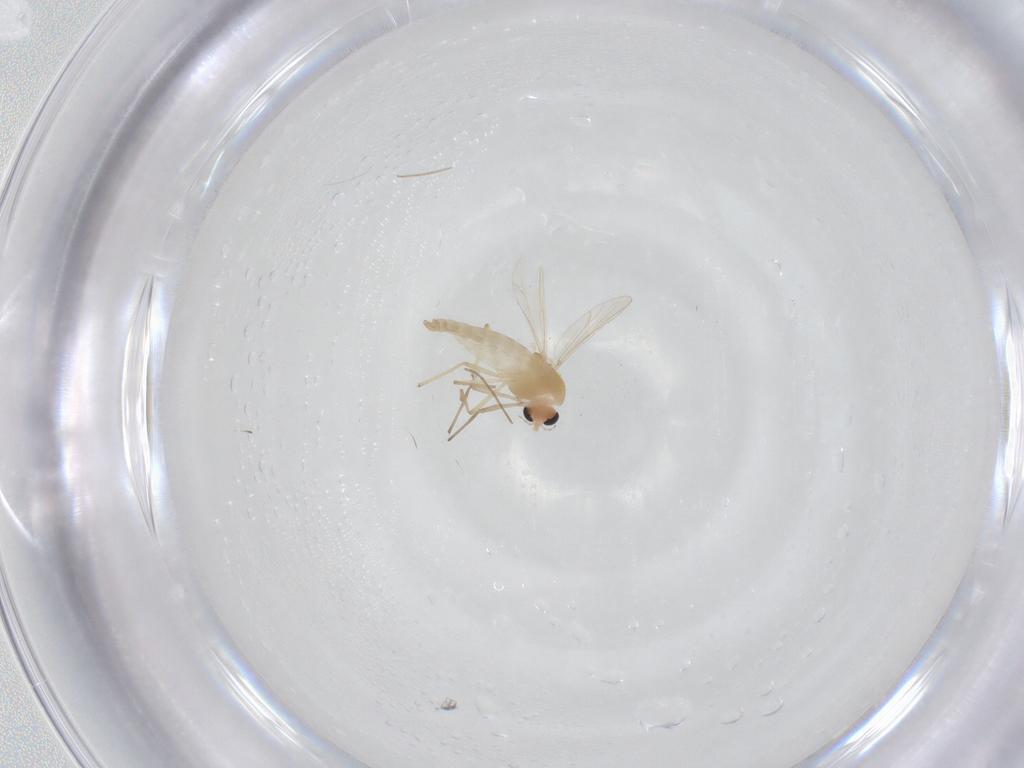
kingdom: Animalia
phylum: Arthropoda
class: Insecta
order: Diptera
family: Chironomidae
